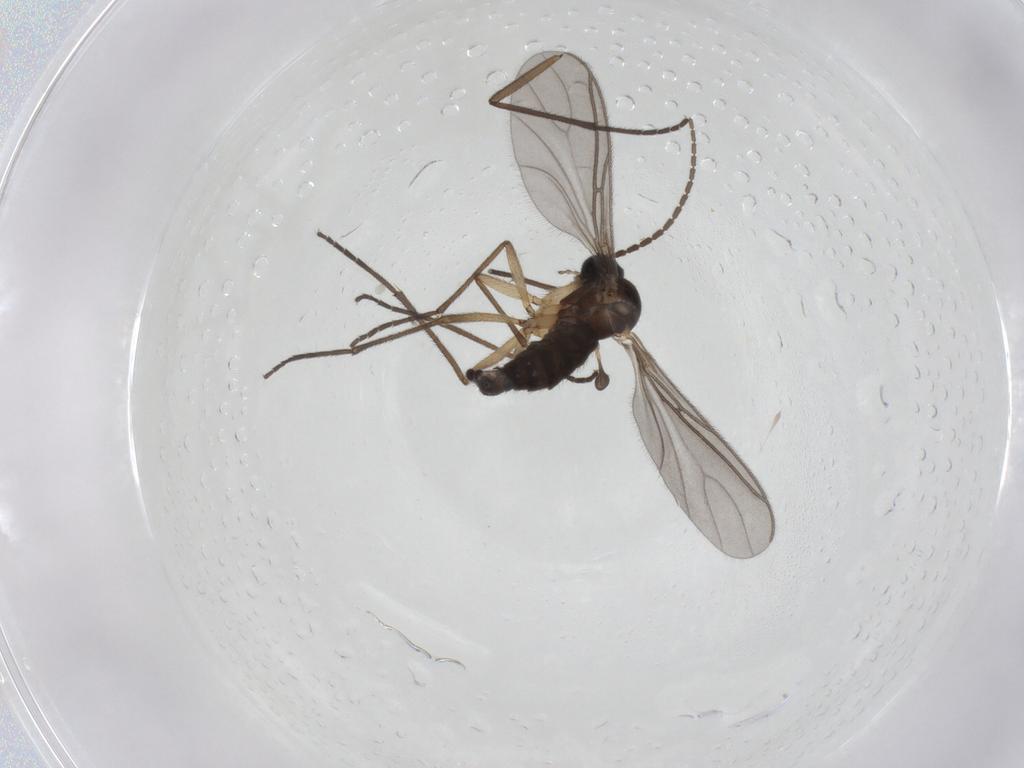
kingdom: Animalia
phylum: Arthropoda
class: Insecta
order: Diptera
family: Sciaridae
